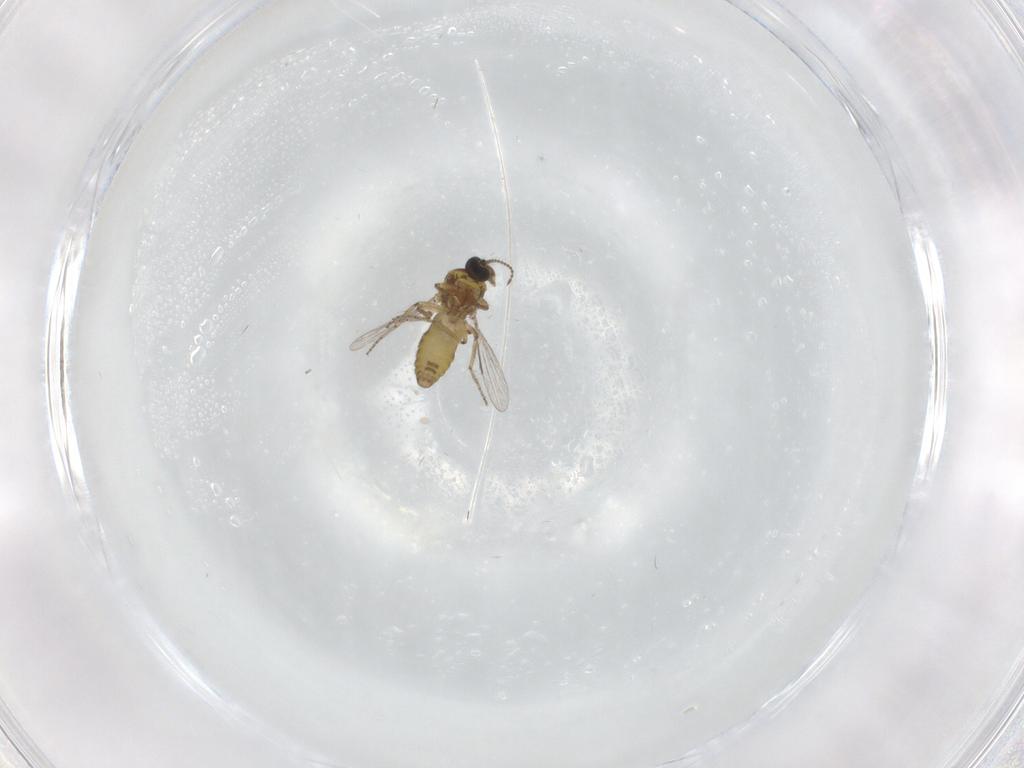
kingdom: Animalia
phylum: Arthropoda
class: Insecta
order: Diptera
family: Ceratopogonidae
